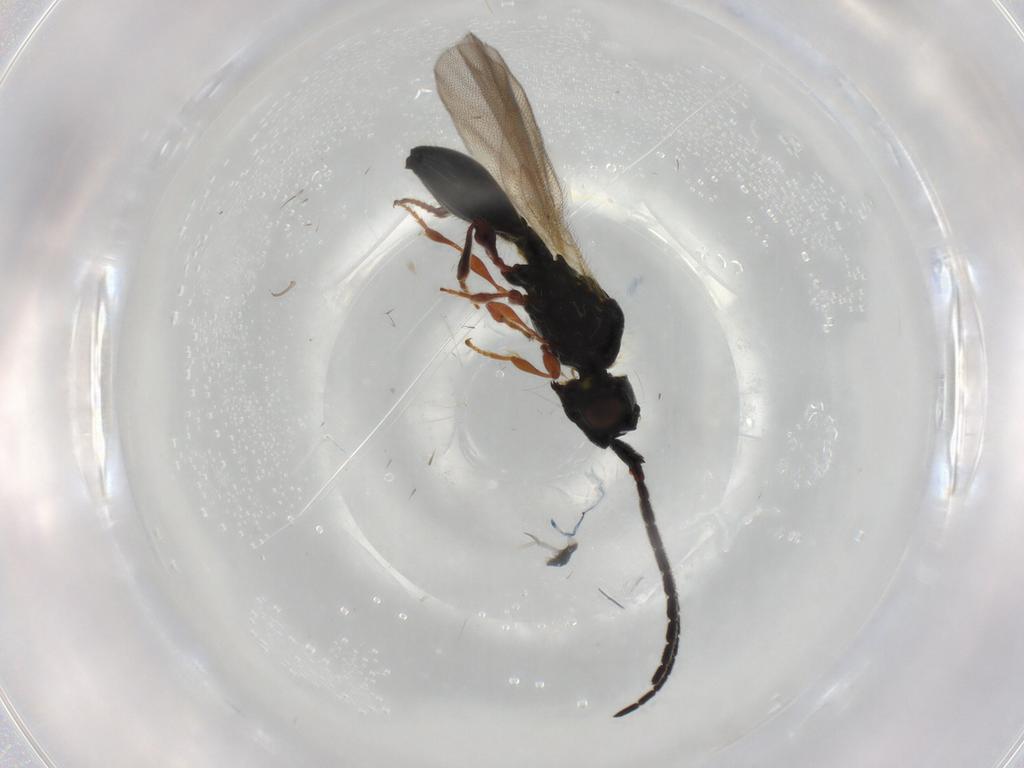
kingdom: Animalia
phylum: Arthropoda
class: Insecta
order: Hymenoptera
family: Diapriidae
